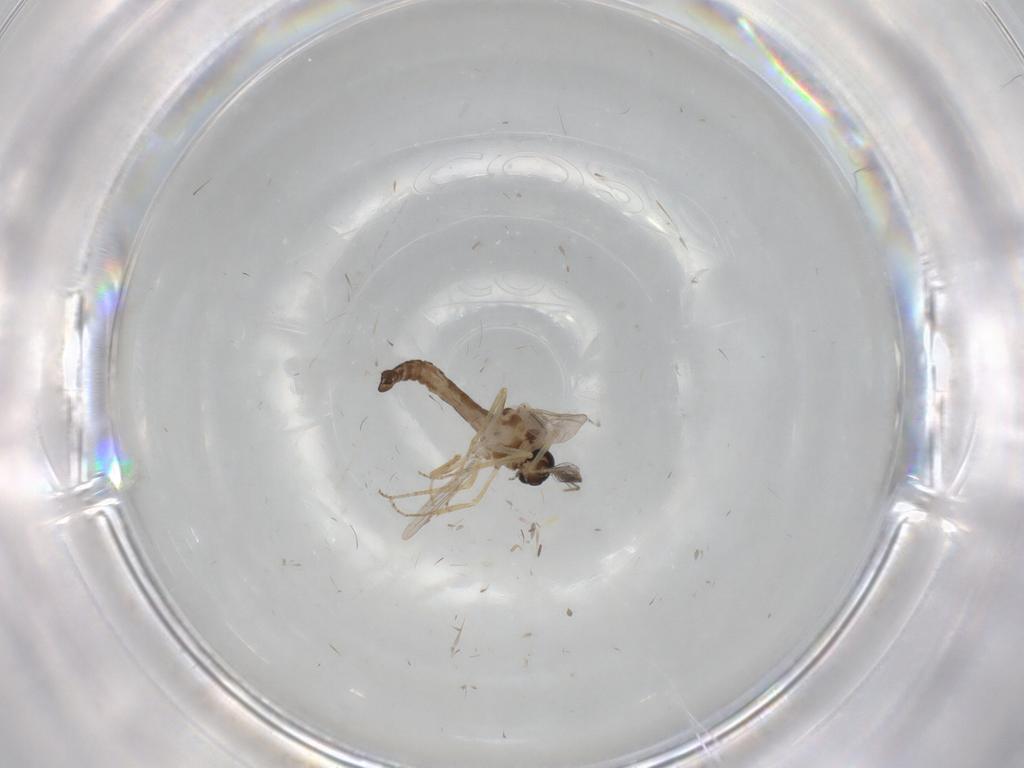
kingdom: Animalia
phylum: Arthropoda
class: Insecta
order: Diptera
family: Ceratopogonidae
